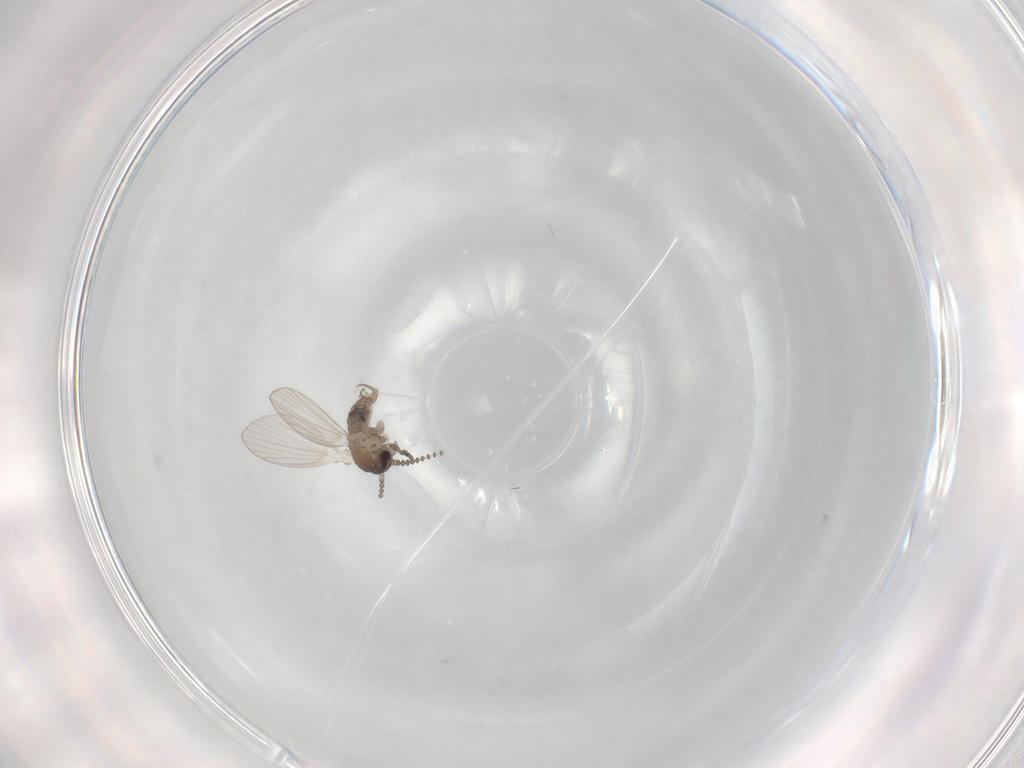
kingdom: Animalia
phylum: Arthropoda
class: Insecta
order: Diptera
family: Psychodidae
